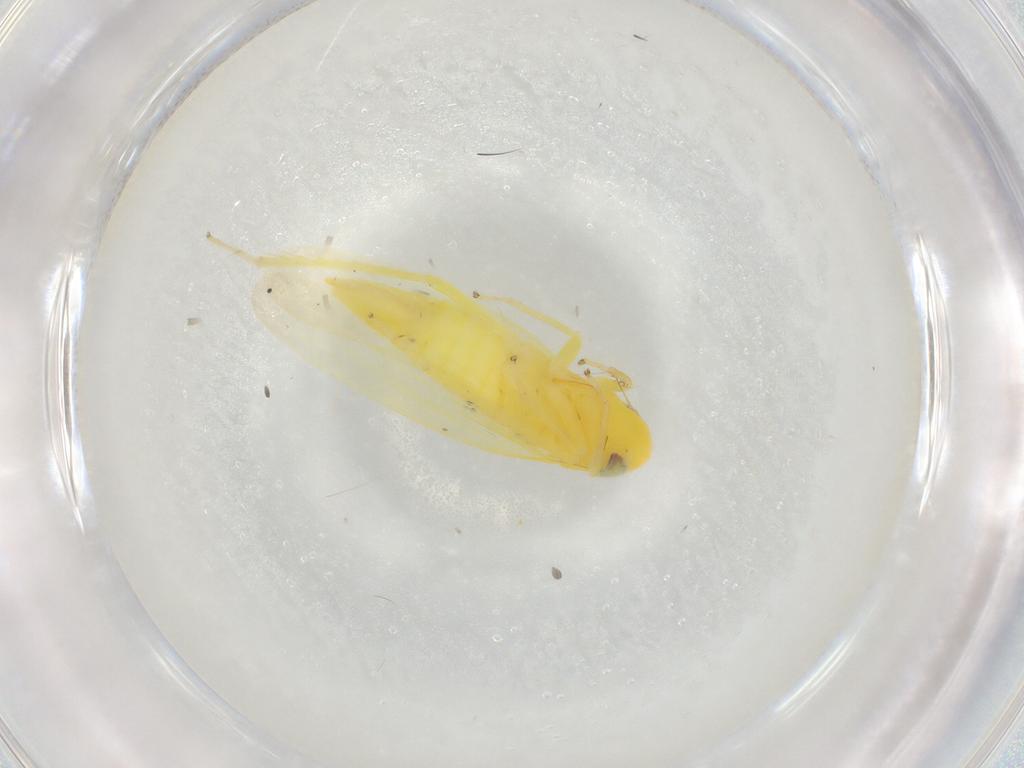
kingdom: Animalia
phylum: Arthropoda
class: Insecta
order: Hemiptera
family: Cicadellidae
